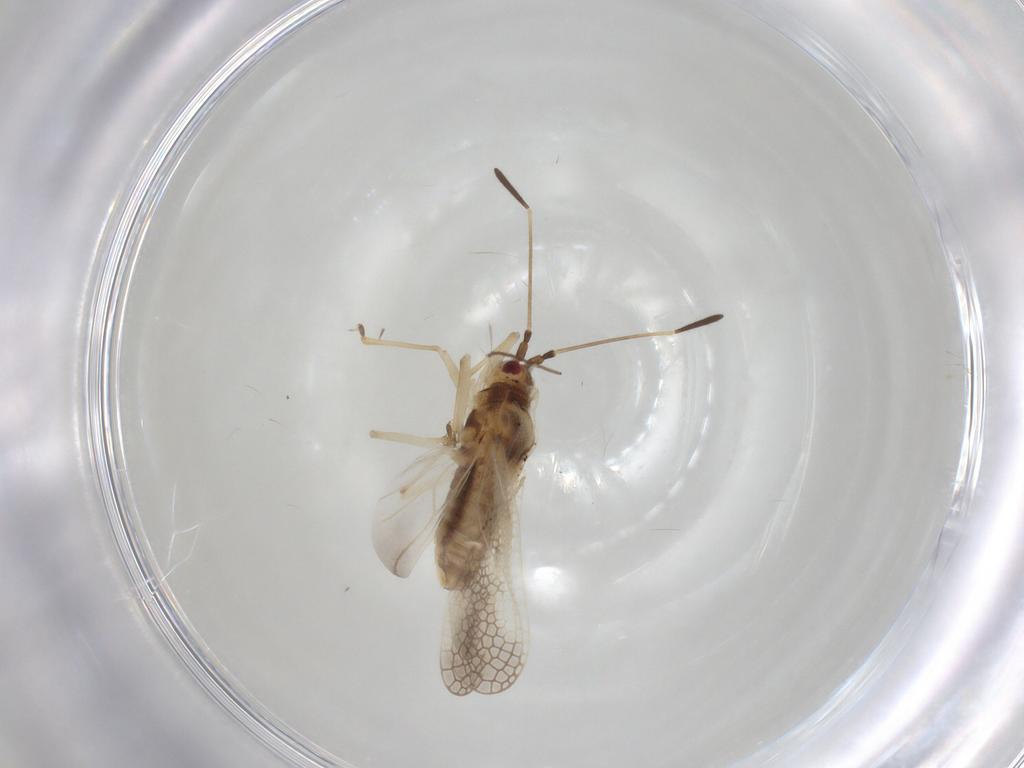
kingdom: Animalia
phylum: Arthropoda
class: Insecta
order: Hemiptera
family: Tingidae
